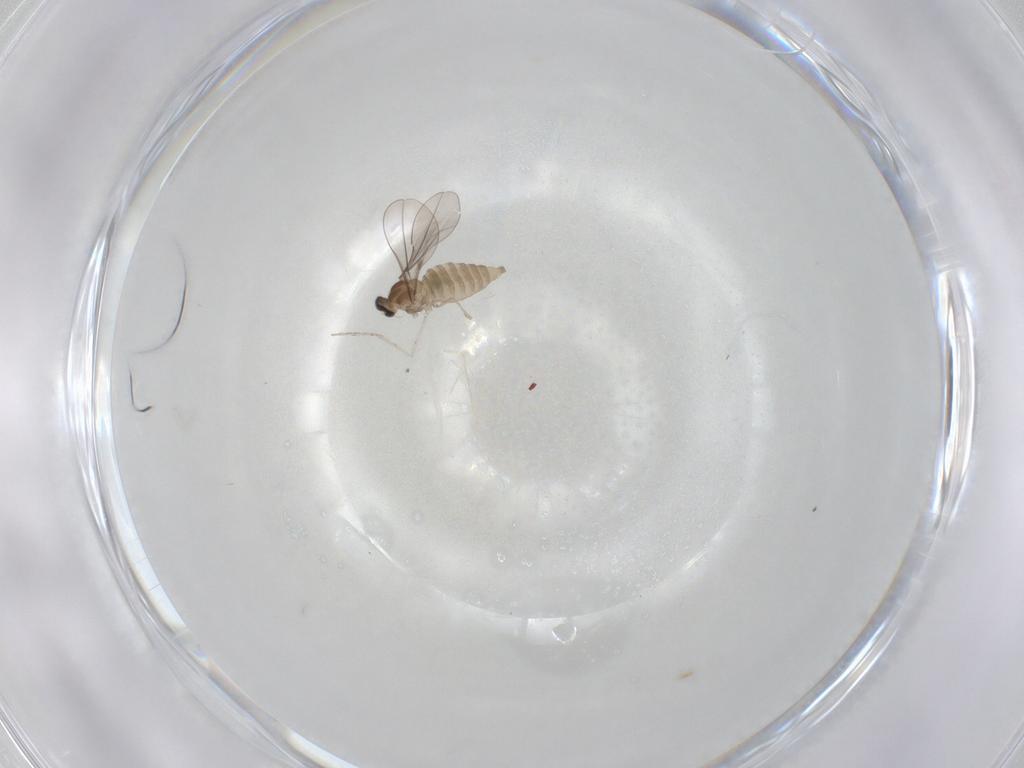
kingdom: Animalia
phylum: Arthropoda
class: Insecta
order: Diptera
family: Cecidomyiidae
